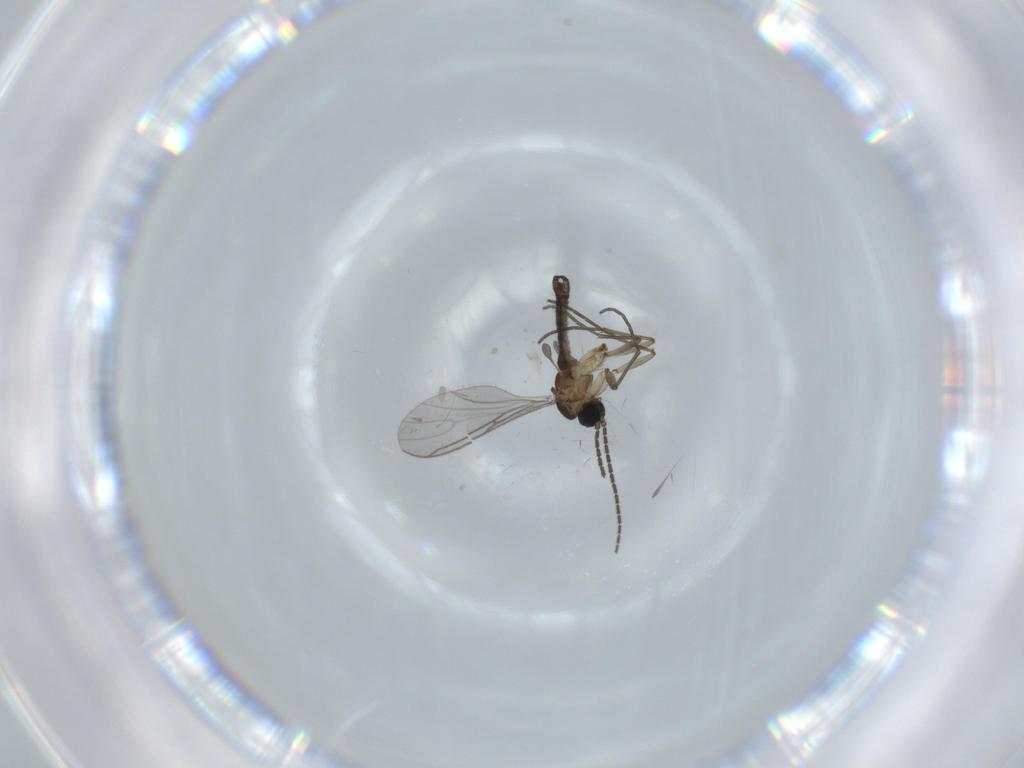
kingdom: Animalia
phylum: Arthropoda
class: Insecta
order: Diptera
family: Sciaridae
